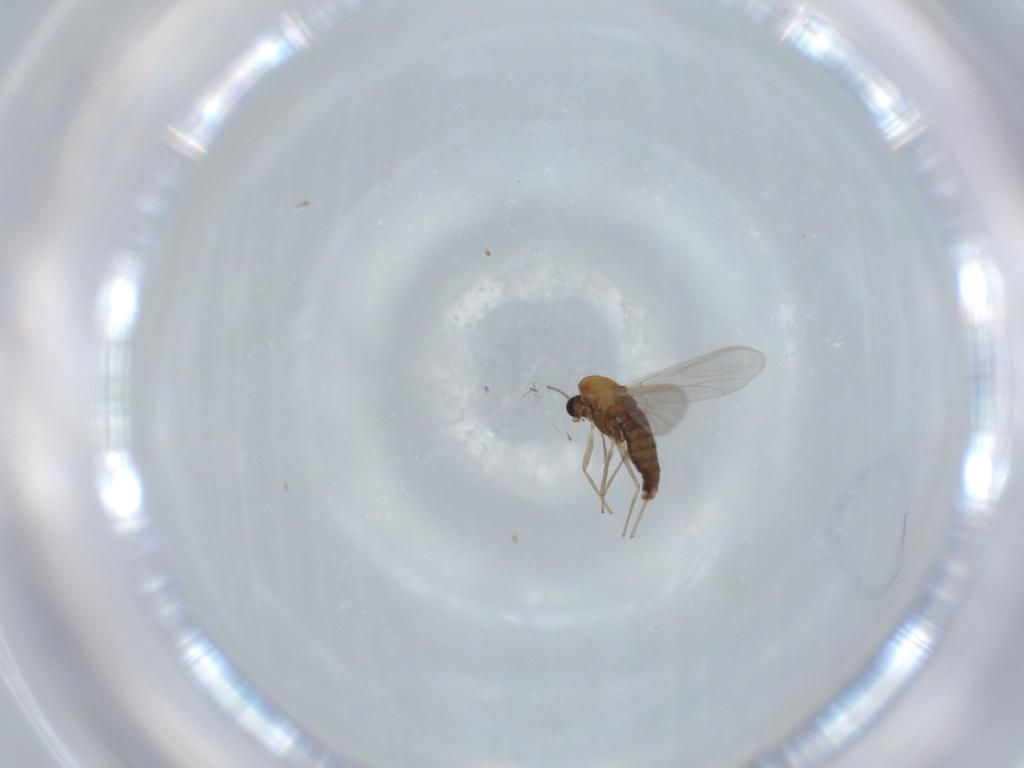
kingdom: Animalia
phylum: Arthropoda
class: Insecta
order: Diptera
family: Chironomidae
